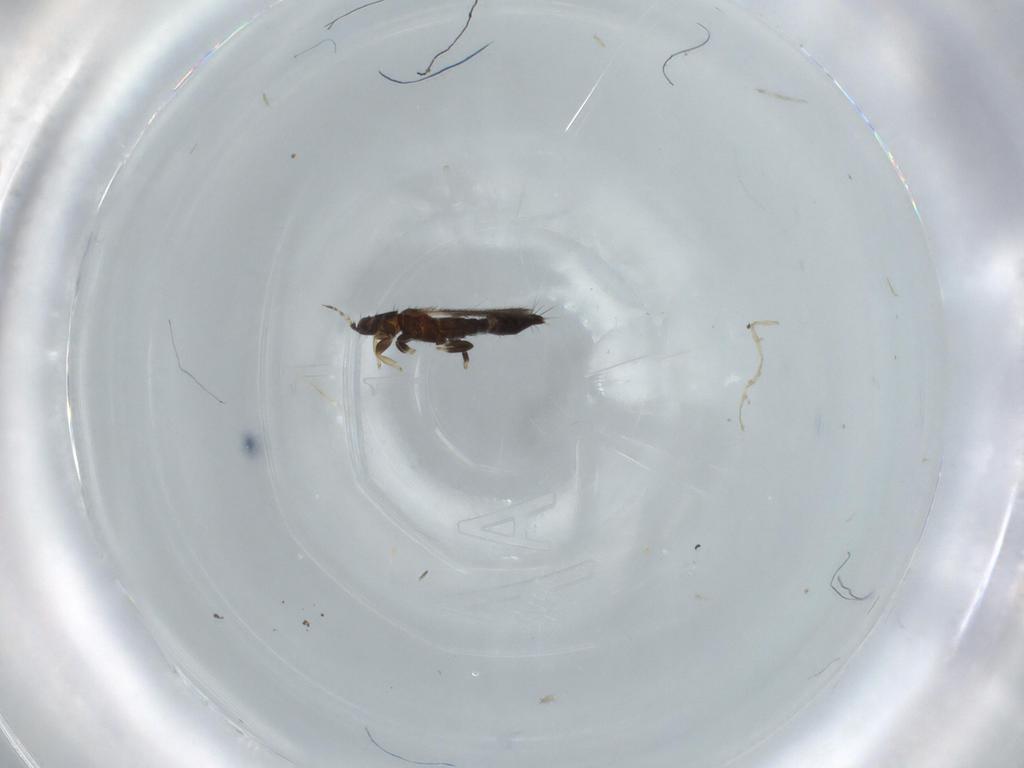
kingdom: Animalia
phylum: Arthropoda
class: Insecta
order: Thysanoptera
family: Thripidae
